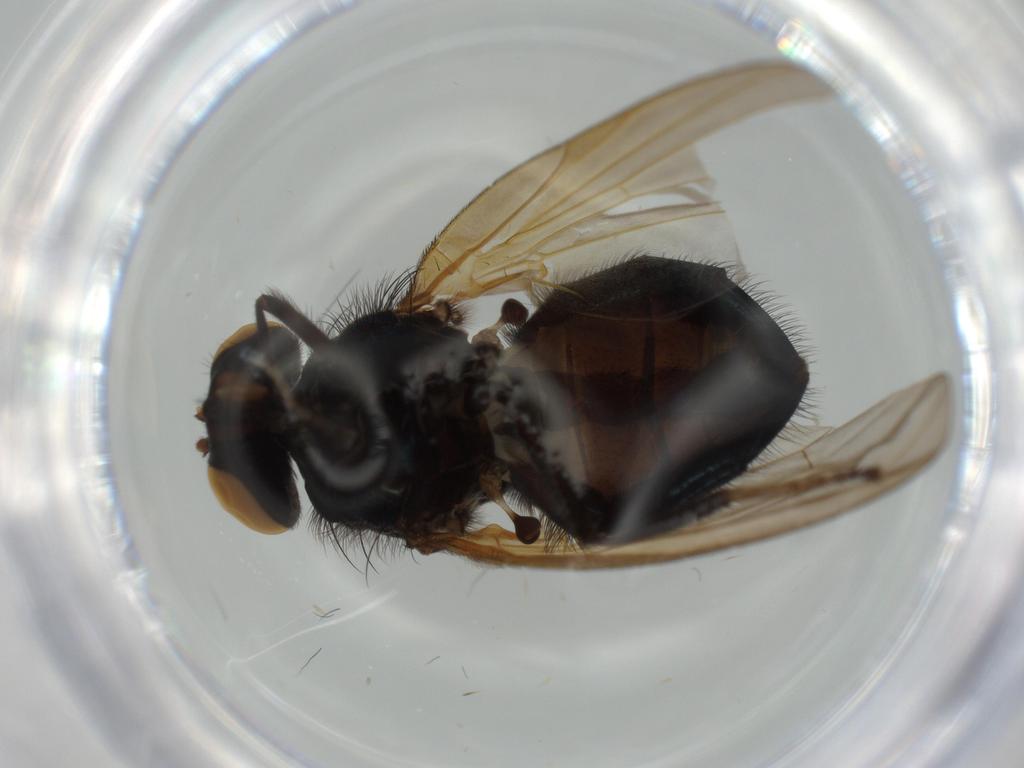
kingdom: Animalia
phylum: Arthropoda
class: Insecta
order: Diptera
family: Lonchaeidae
